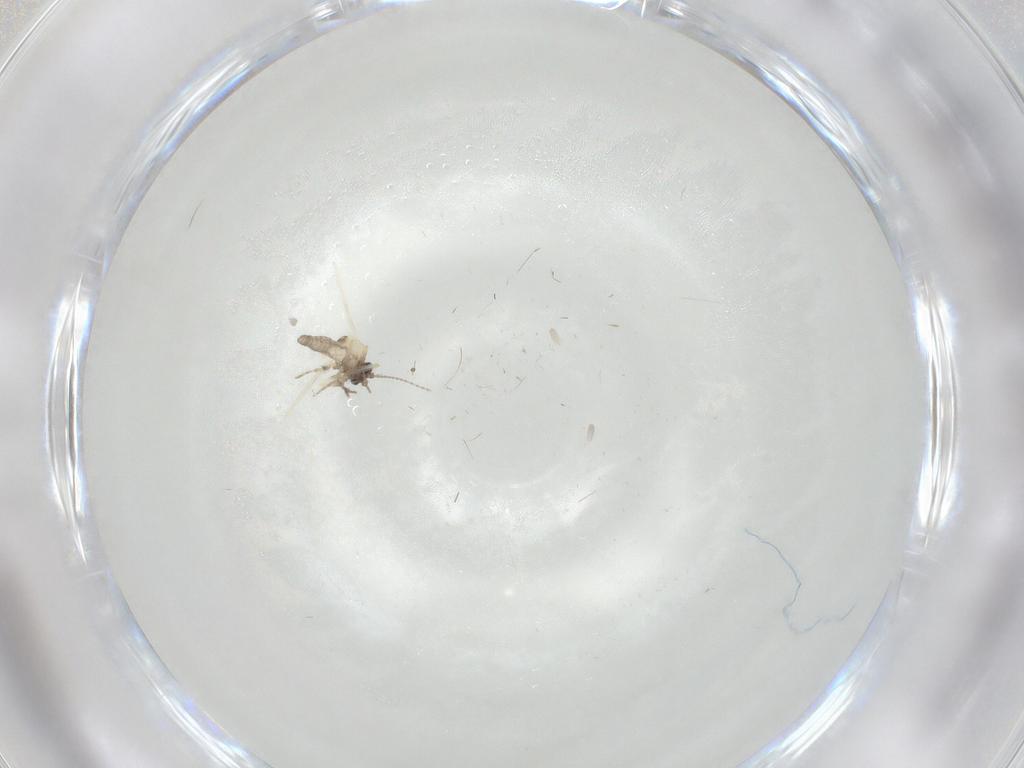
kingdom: Animalia
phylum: Arthropoda
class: Insecta
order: Diptera
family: Ceratopogonidae
